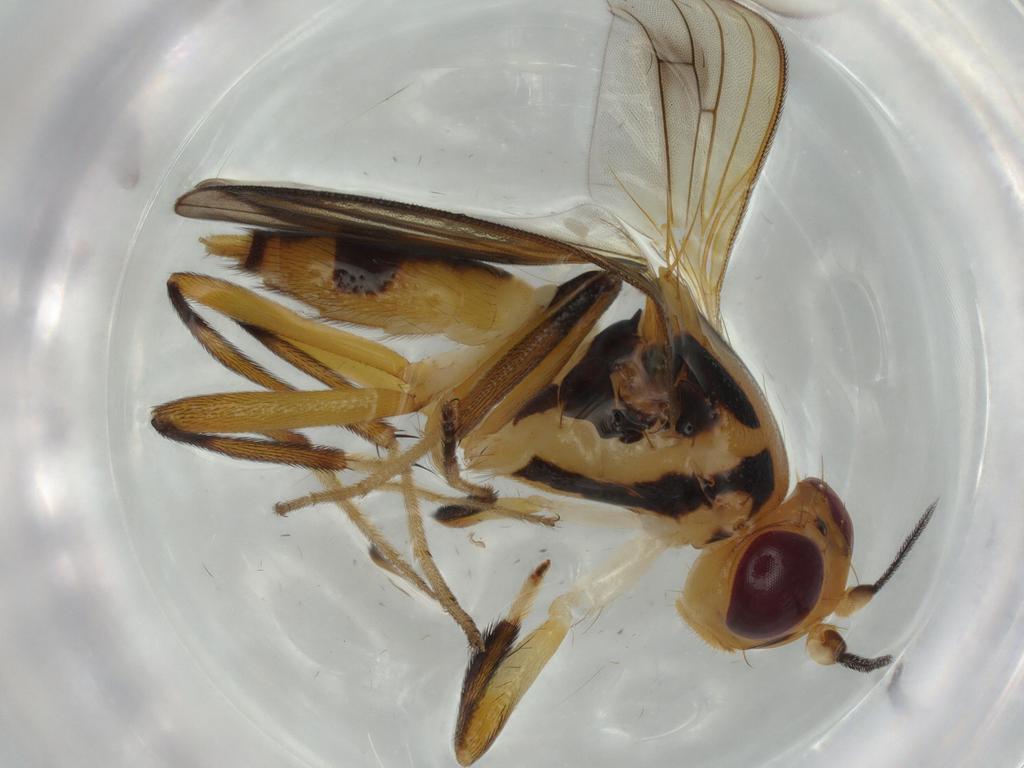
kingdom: Animalia
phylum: Arthropoda
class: Insecta
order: Diptera
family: Clusiidae
